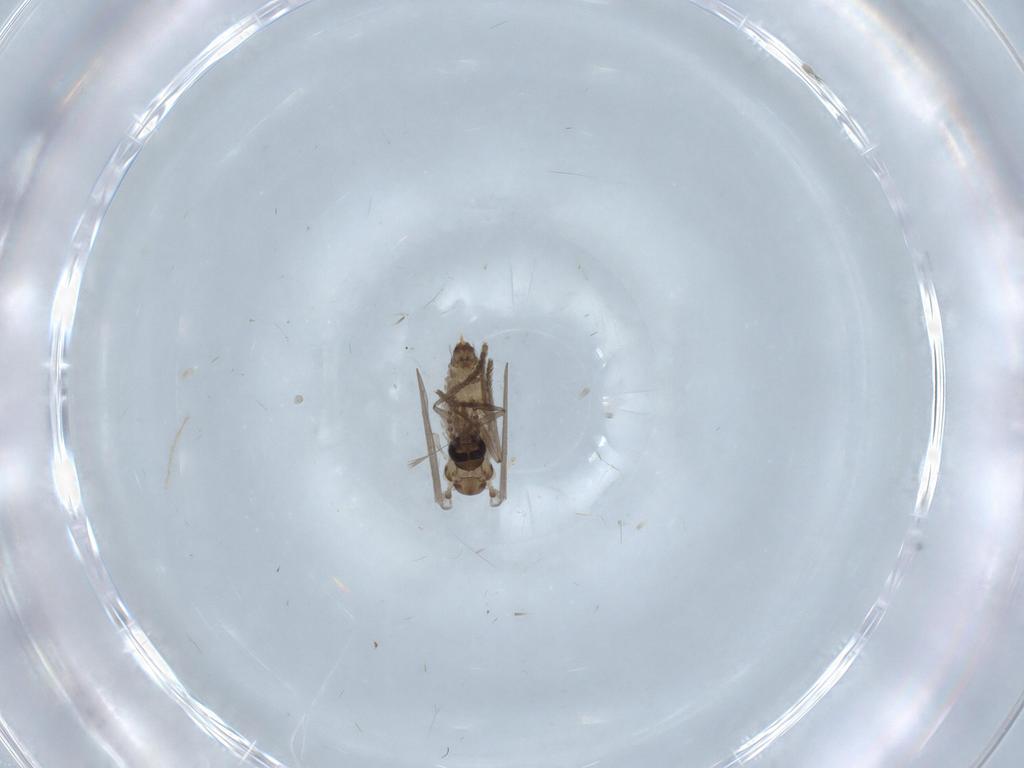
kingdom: Animalia
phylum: Arthropoda
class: Insecta
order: Diptera
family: Psychodidae
